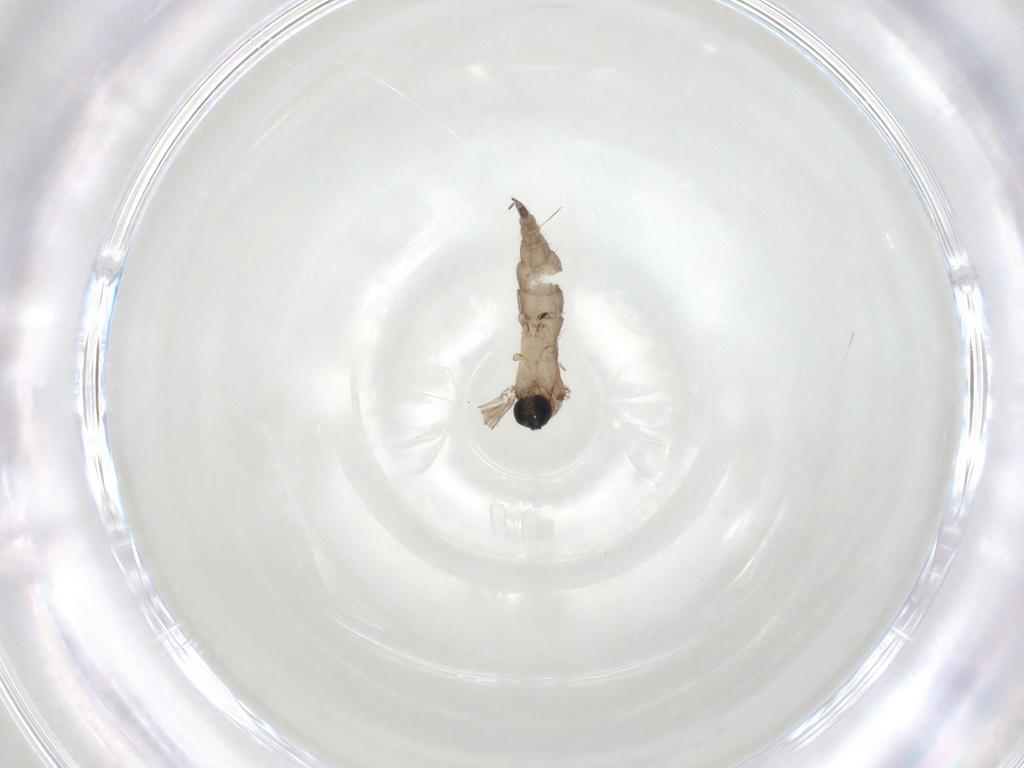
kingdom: Animalia
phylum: Arthropoda
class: Insecta
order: Diptera
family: Sciaridae
